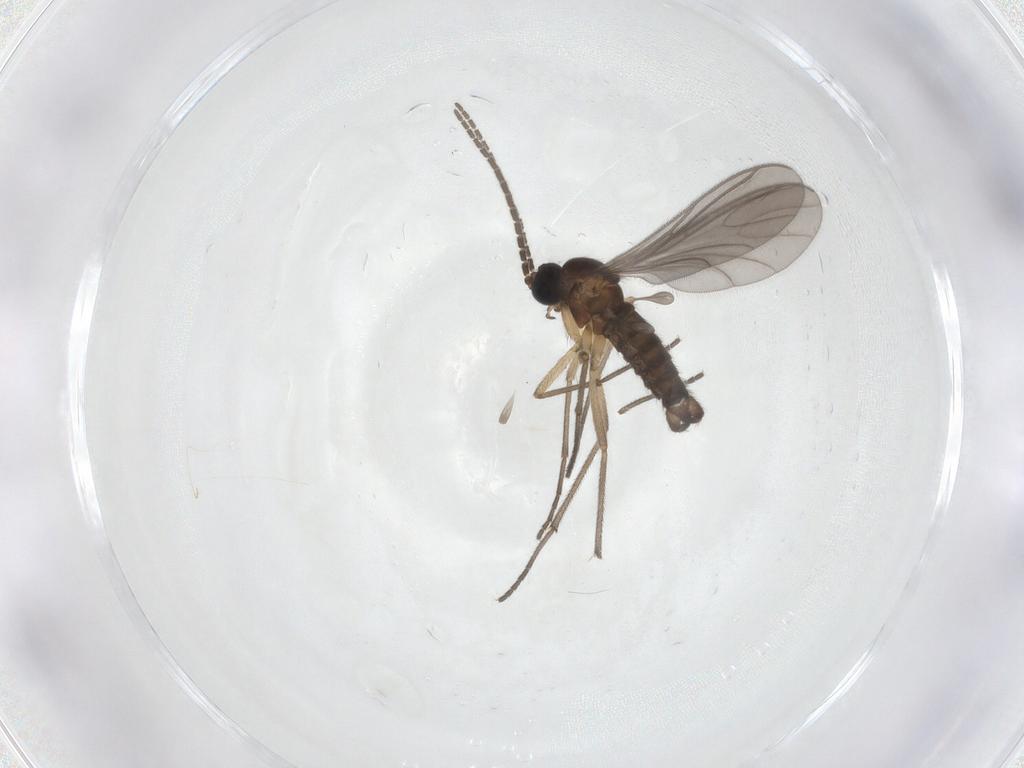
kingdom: Animalia
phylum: Arthropoda
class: Insecta
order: Diptera
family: Sciaridae
